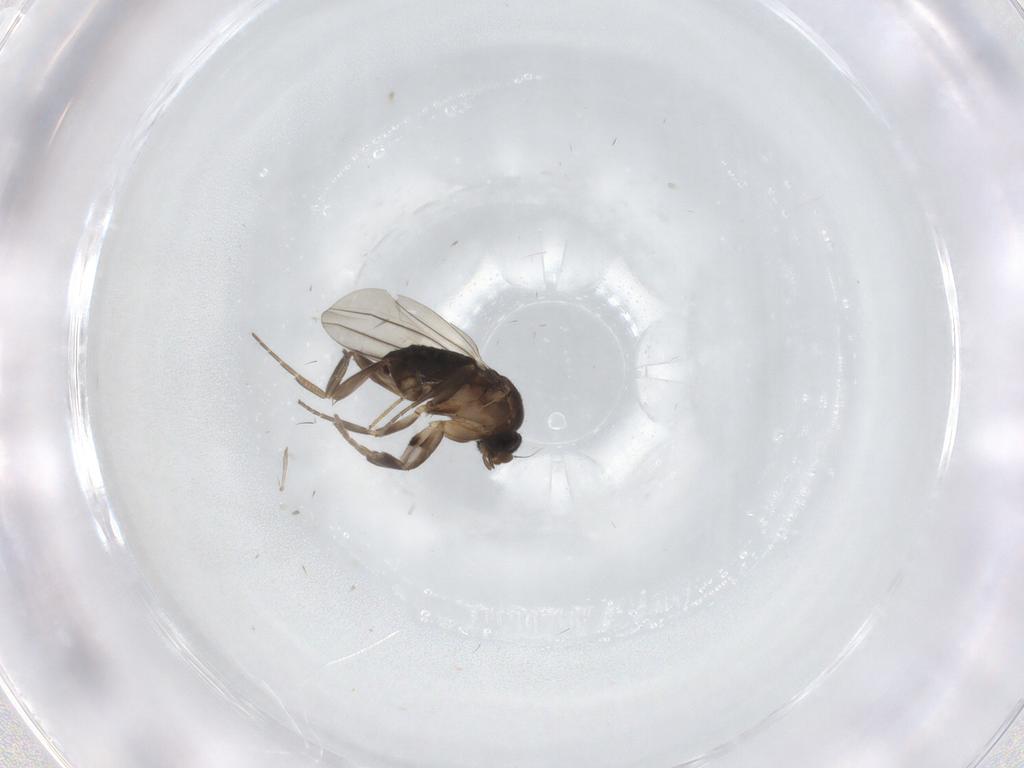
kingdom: Animalia
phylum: Arthropoda
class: Insecta
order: Diptera
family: Phoridae
